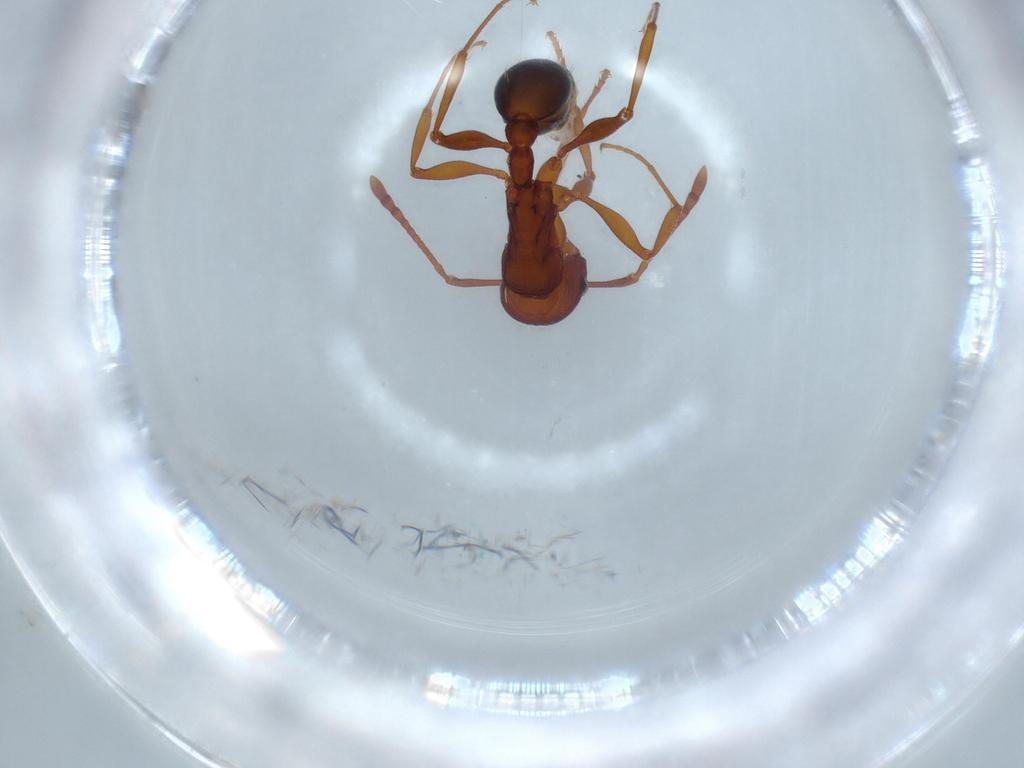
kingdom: Animalia
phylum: Arthropoda
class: Insecta
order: Hymenoptera
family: Formicidae
